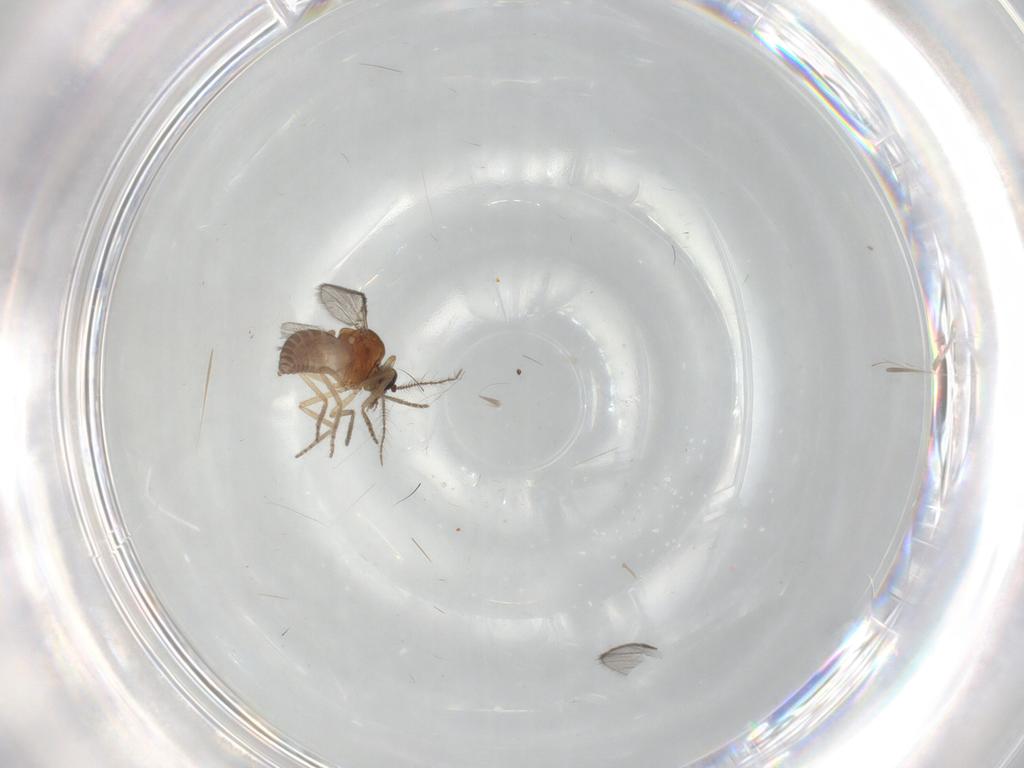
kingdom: Animalia
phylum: Arthropoda
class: Insecta
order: Diptera
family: Ceratopogonidae
